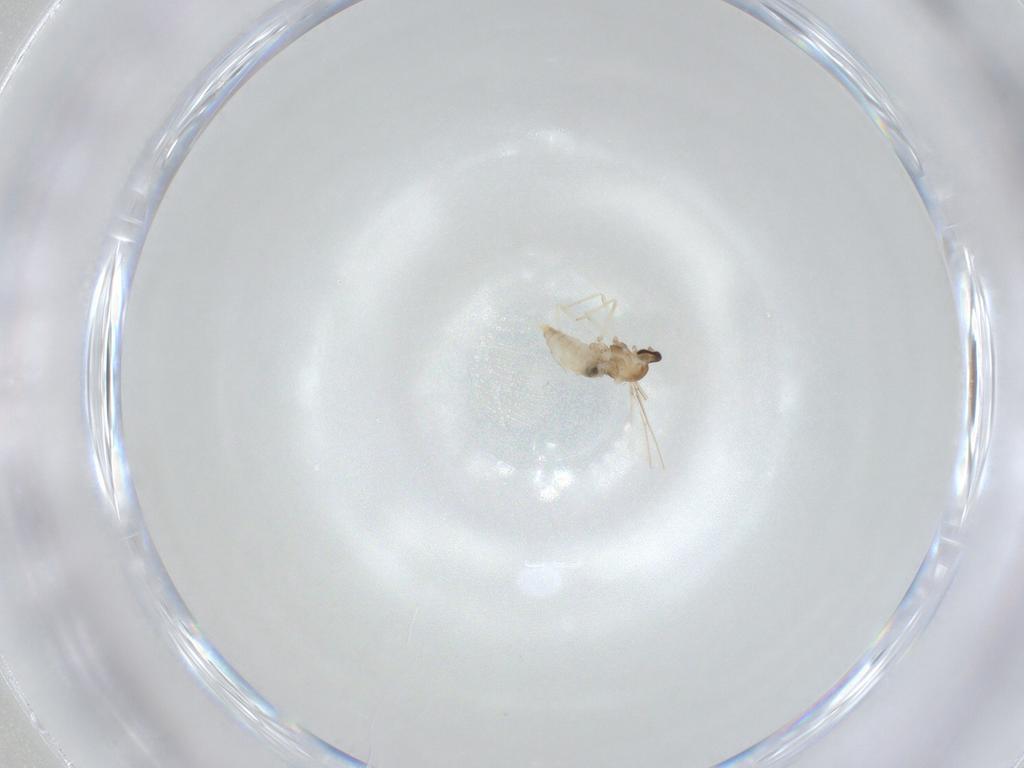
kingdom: Animalia
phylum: Arthropoda
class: Insecta
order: Diptera
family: Cecidomyiidae
